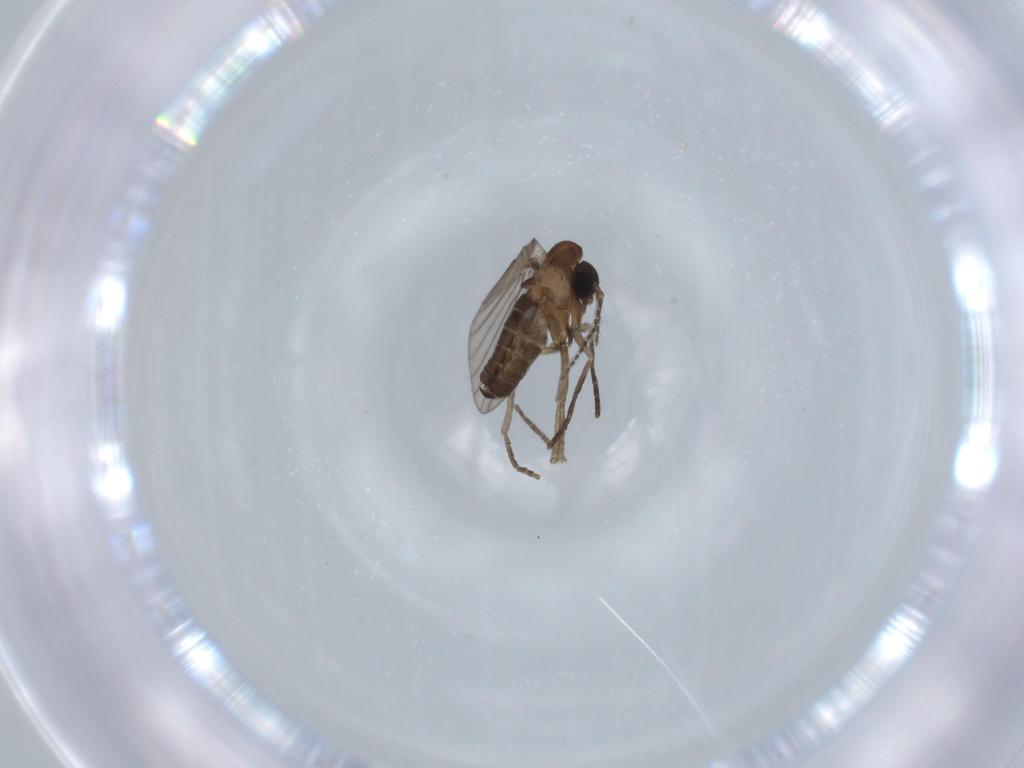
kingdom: Animalia
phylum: Arthropoda
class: Insecta
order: Diptera
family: Psychodidae
